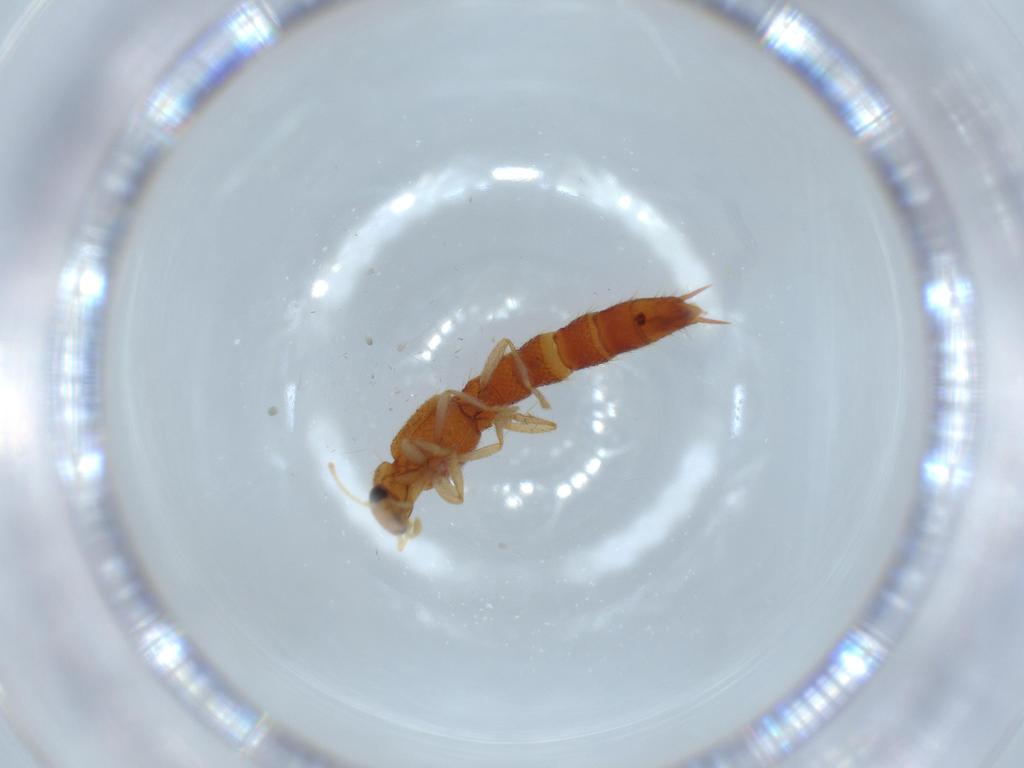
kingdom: Animalia
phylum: Arthropoda
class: Insecta
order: Coleoptera
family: Staphylinidae
